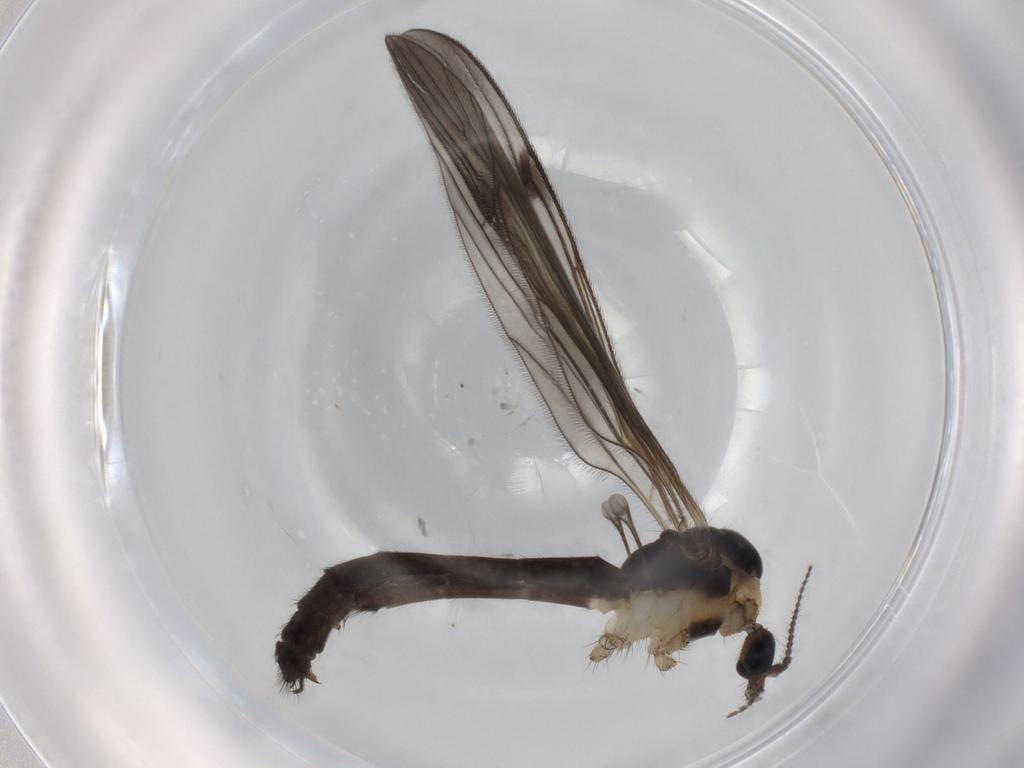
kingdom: Animalia
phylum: Arthropoda
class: Insecta
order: Diptera
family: Limoniidae
